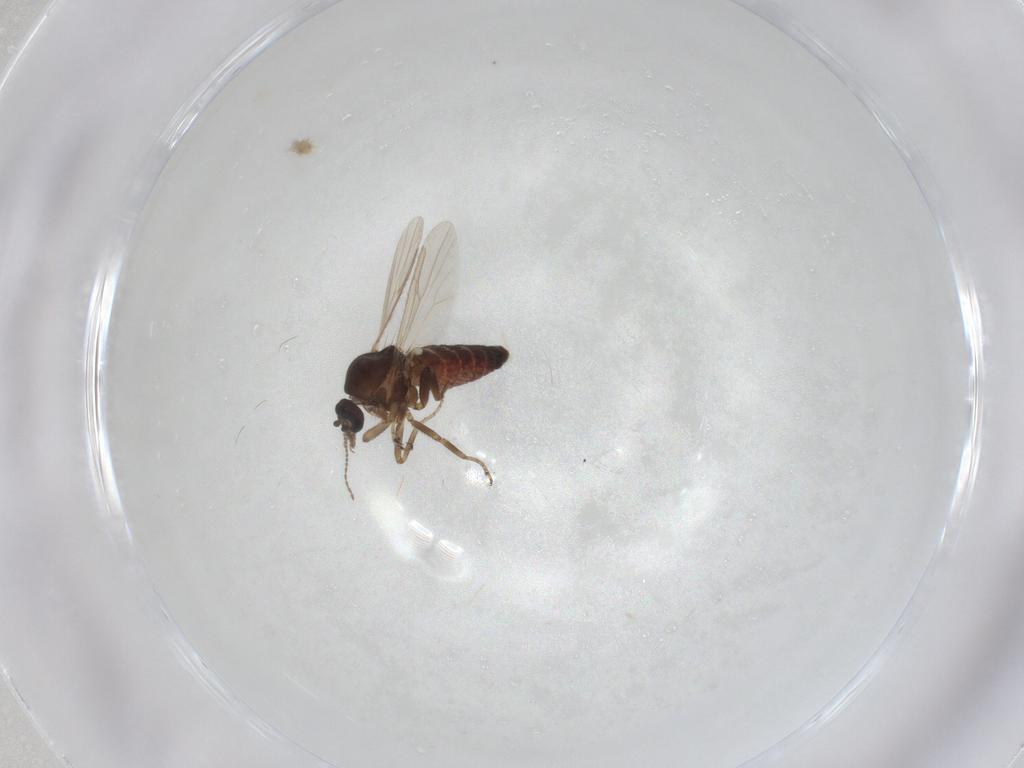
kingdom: Animalia
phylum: Arthropoda
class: Insecta
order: Diptera
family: Ceratopogonidae
